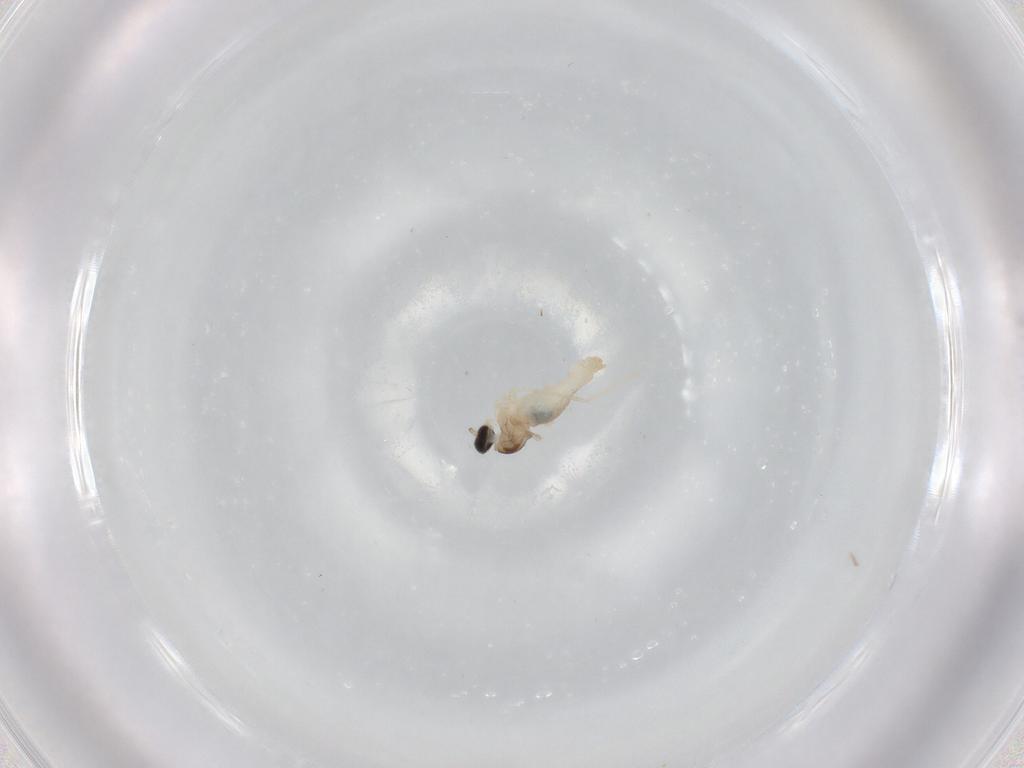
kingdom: Animalia
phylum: Arthropoda
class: Insecta
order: Diptera
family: Cecidomyiidae
